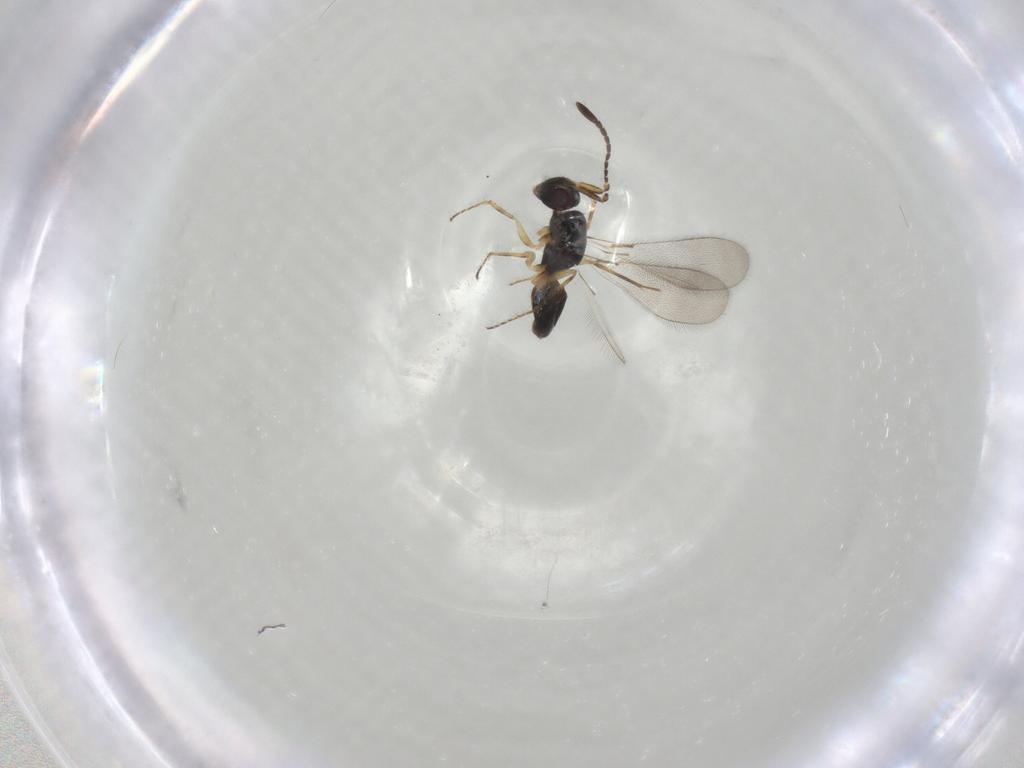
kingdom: Animalia
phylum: Arthropoda
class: Insecta
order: Hymenoptera
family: Mymaridae
